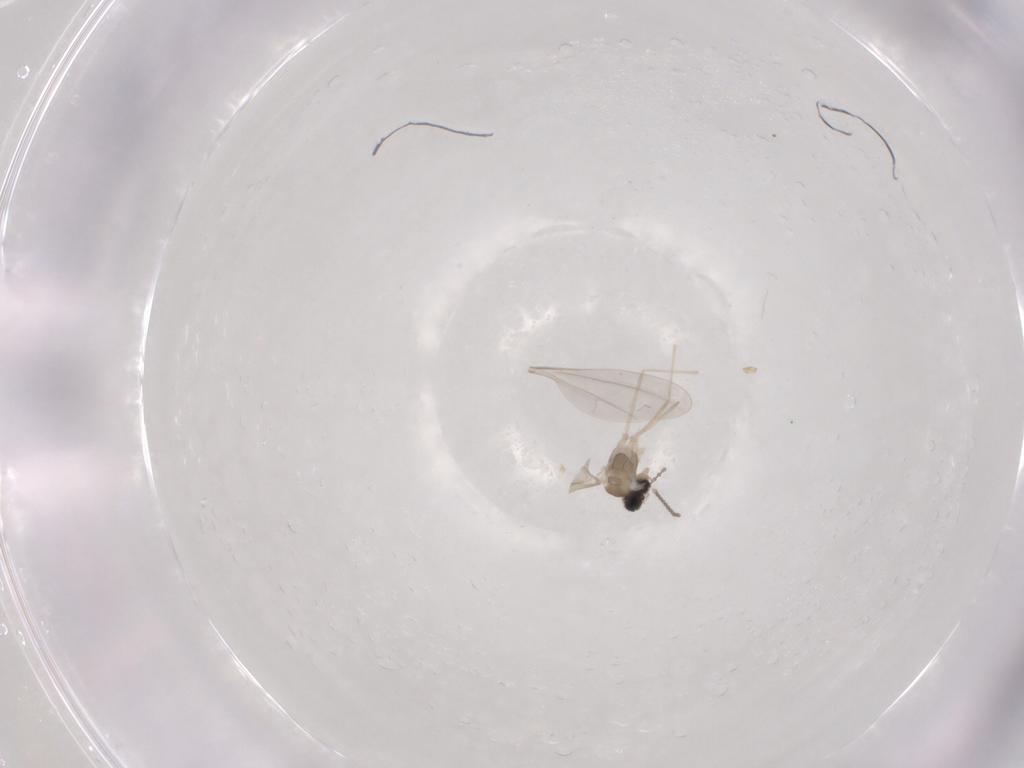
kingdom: Animalia
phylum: Arthropoda
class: Insecta
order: Diptera
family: Cecidomyiidae
